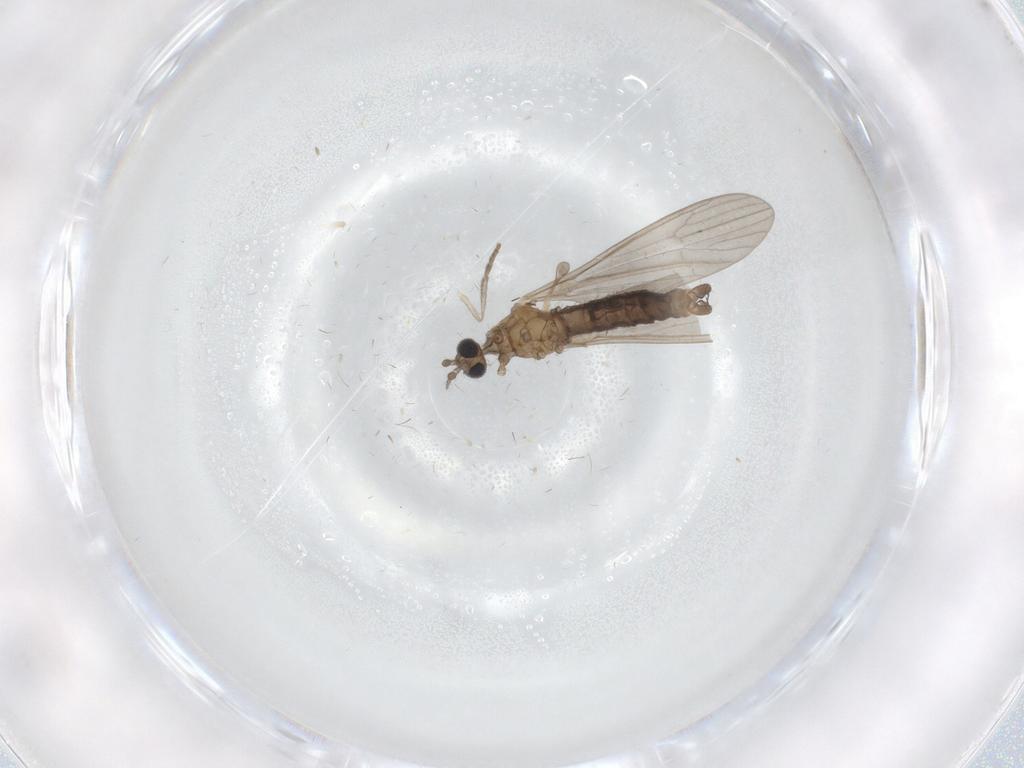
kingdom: Animalia
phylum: Arthropoda
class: Insecta
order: Diptera
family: Limoniidae
